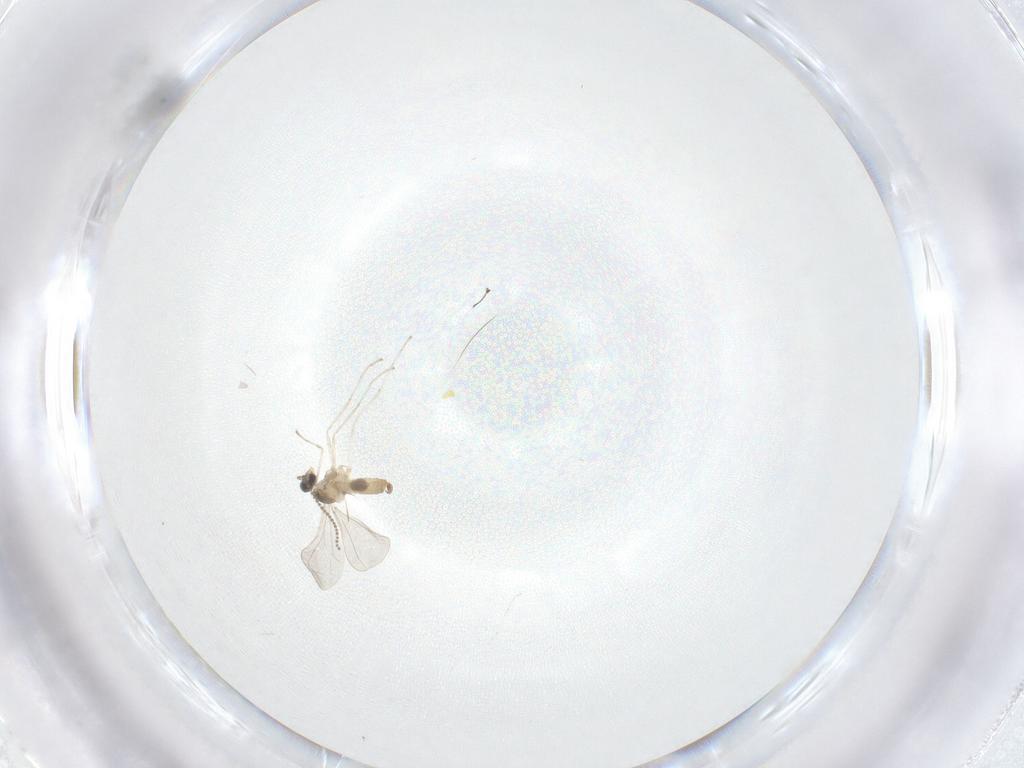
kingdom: Animalia
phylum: Arthropoda
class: Insecta
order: Diptera
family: Cecidomyiidae
